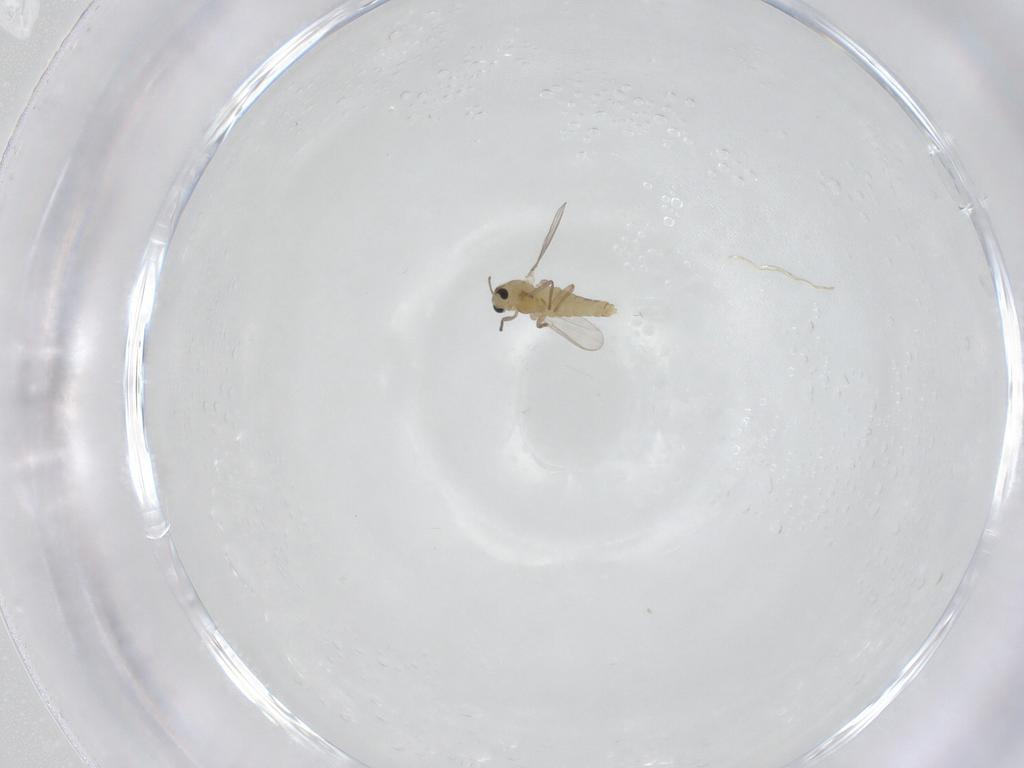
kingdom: Animalia
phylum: Arthropoda
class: Insecta
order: Diptera
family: Chironomidae
